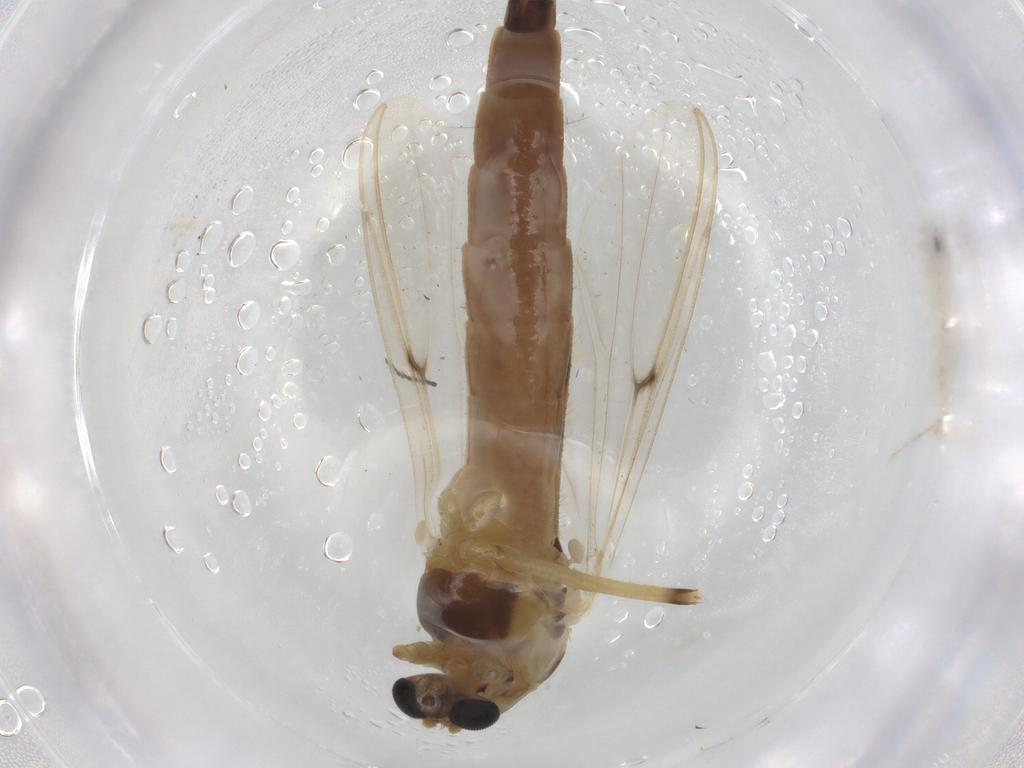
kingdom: Animalia
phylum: Arthropoda
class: Insecta
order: Diptera
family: Chironomidae
